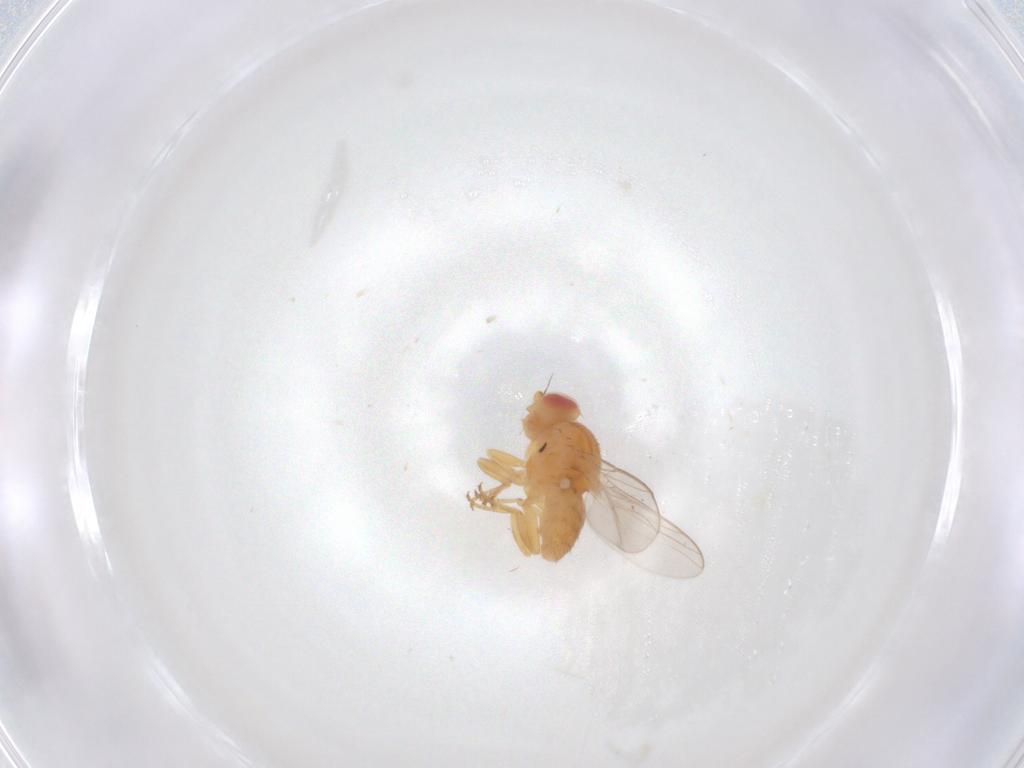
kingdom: Animalia
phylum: Arthropoda
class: Insecta
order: Diptera
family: Chloropidae
